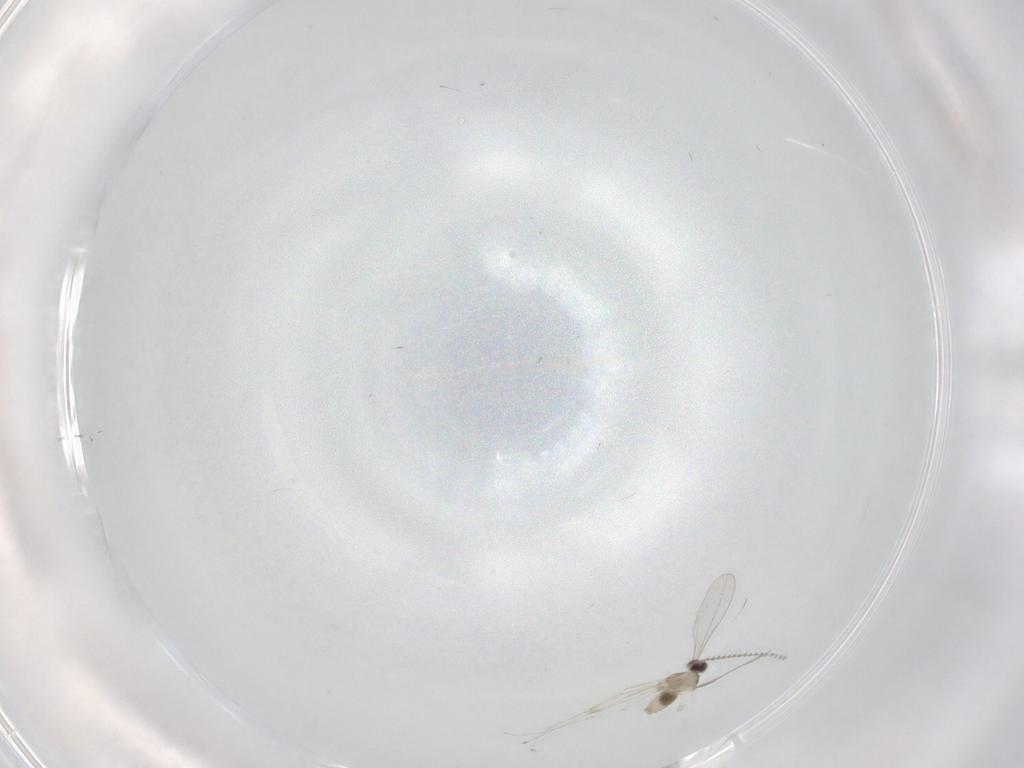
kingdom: Animalia
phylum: Arthropoda
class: Insecta
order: Diptera
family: Cecidomyiidae
